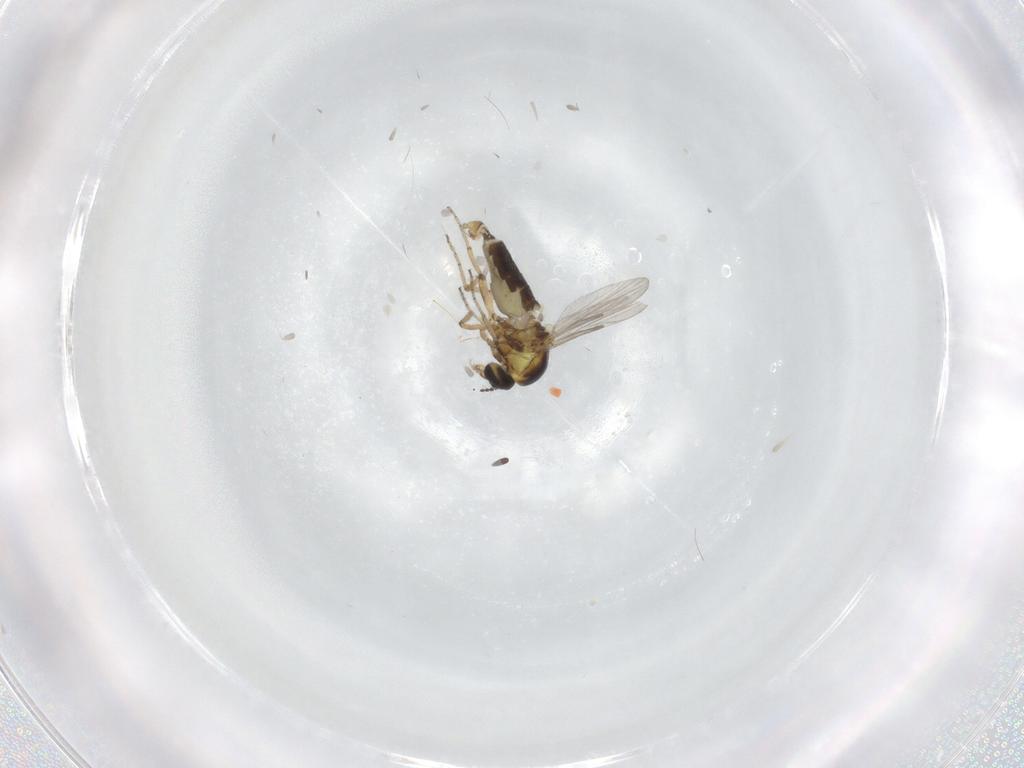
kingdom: Animalia
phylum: Arthropoda
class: Insecta
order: Diptera
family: Ceratopogonidae
